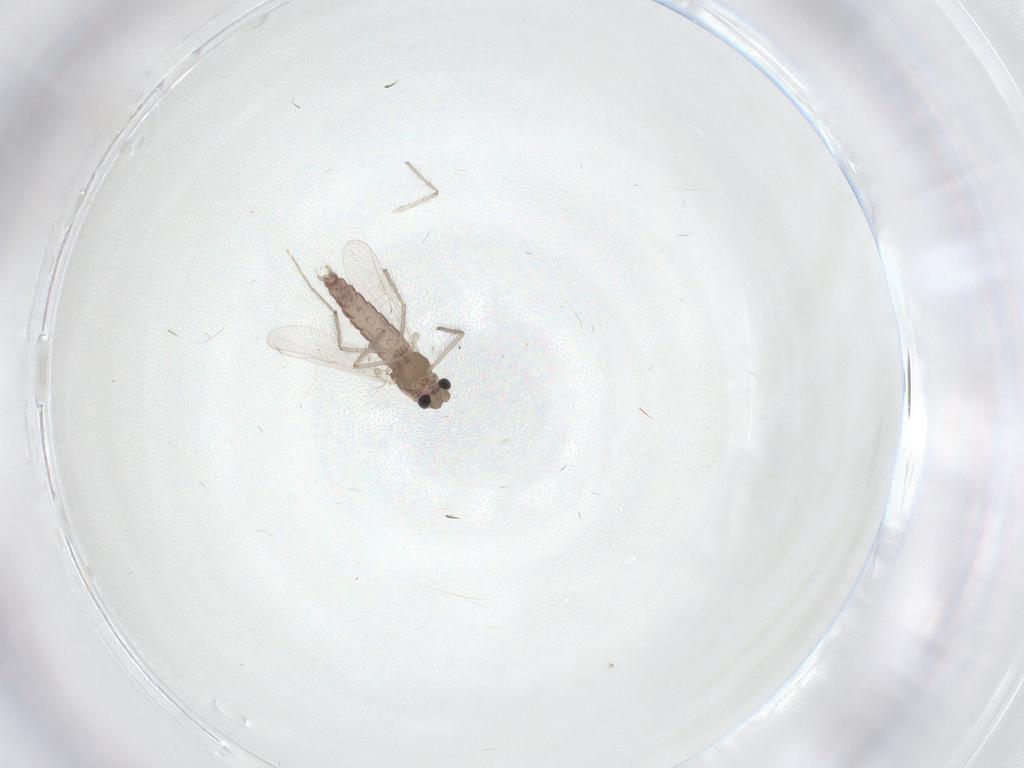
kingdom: Animalia
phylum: Arthropoda
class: Insecta
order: Diptera
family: Chironomidae
